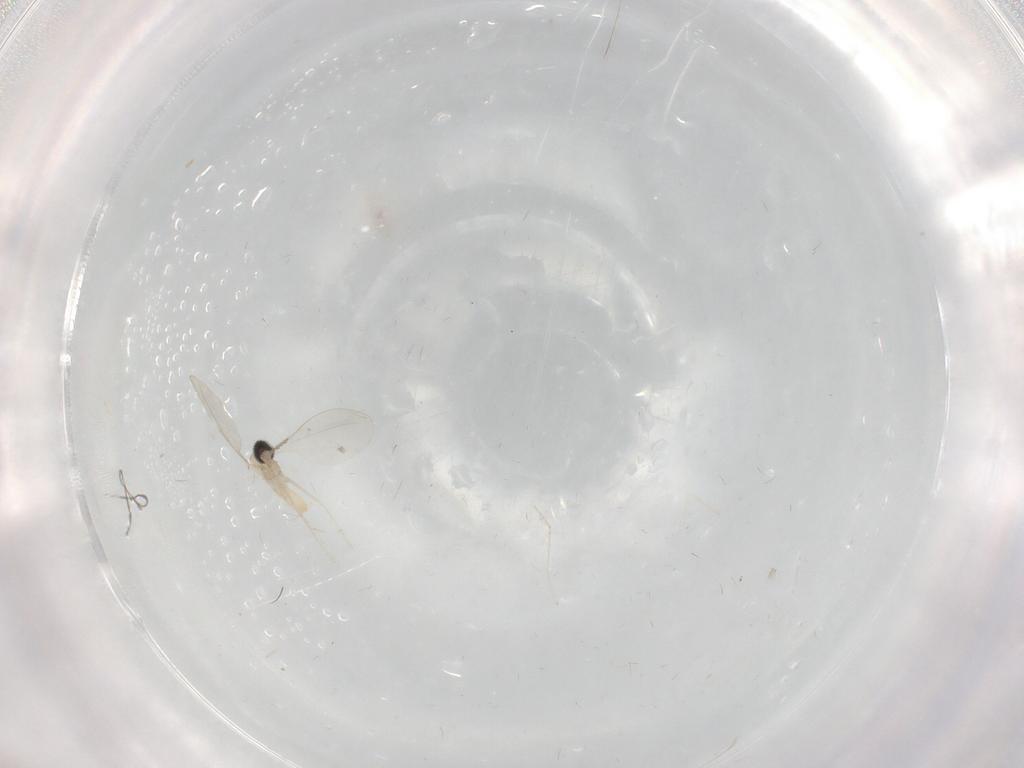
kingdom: Animalia
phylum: Arthropoda
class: Insecta
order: Diptera
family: Cecidomyiidae
